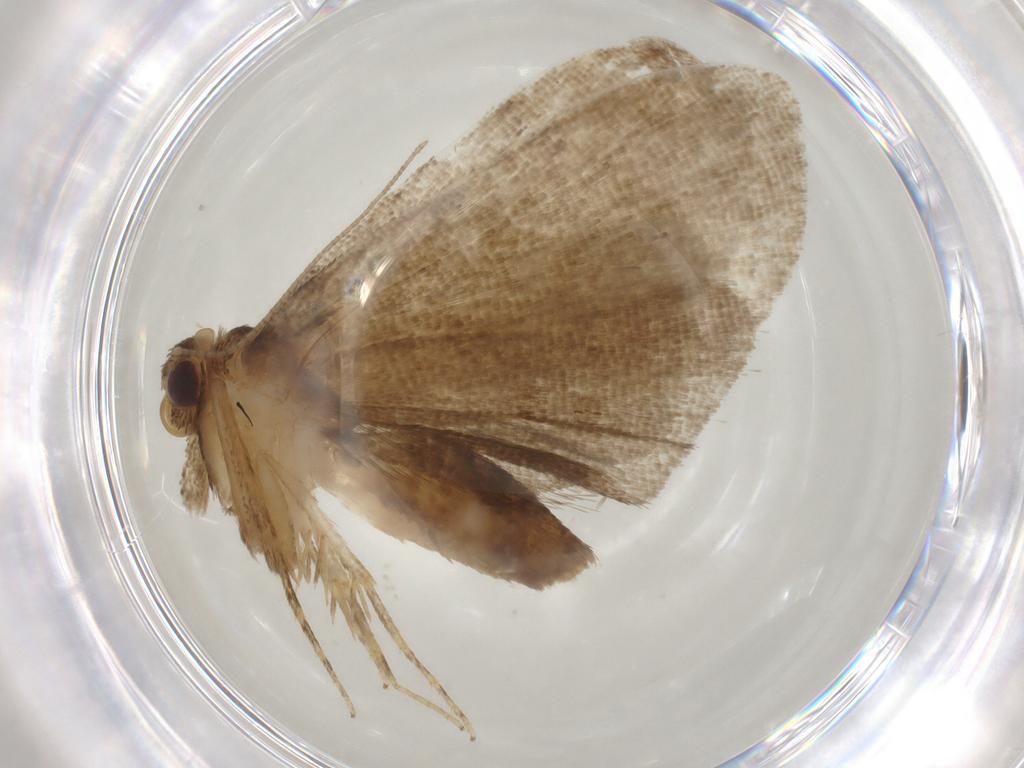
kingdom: Animalia
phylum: Arthropoda
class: Insecta
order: Lepidoptera
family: Erebidae
